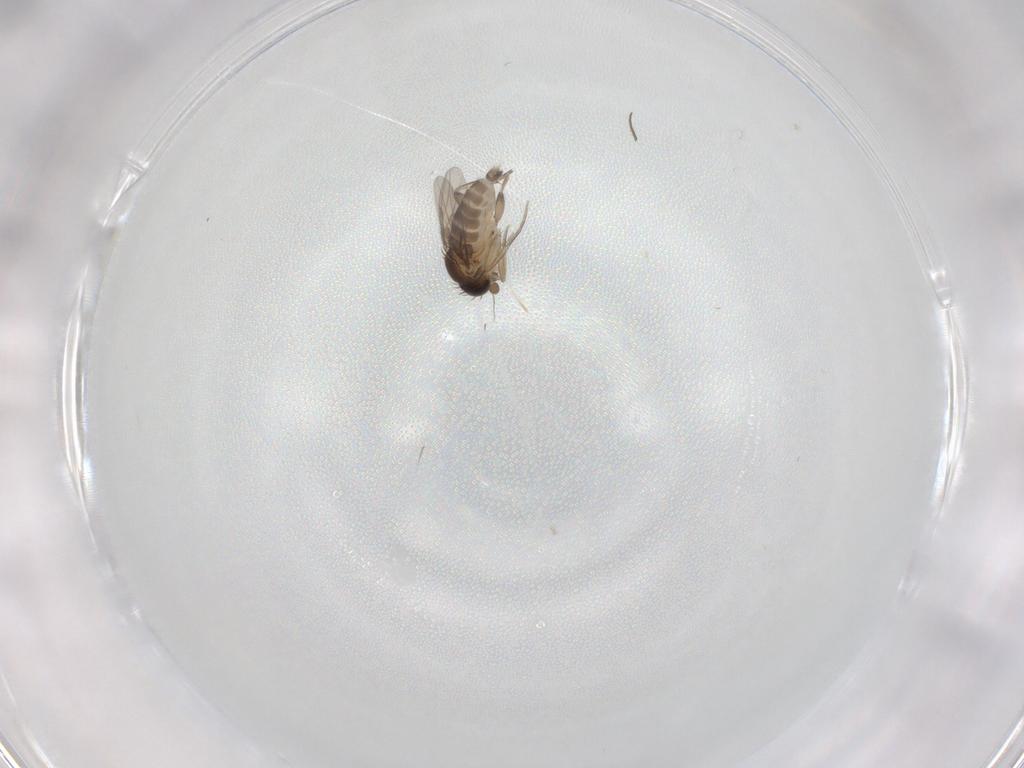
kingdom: Animalia
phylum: Arthropoda
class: Insecta
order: Diptera
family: Phoridae
